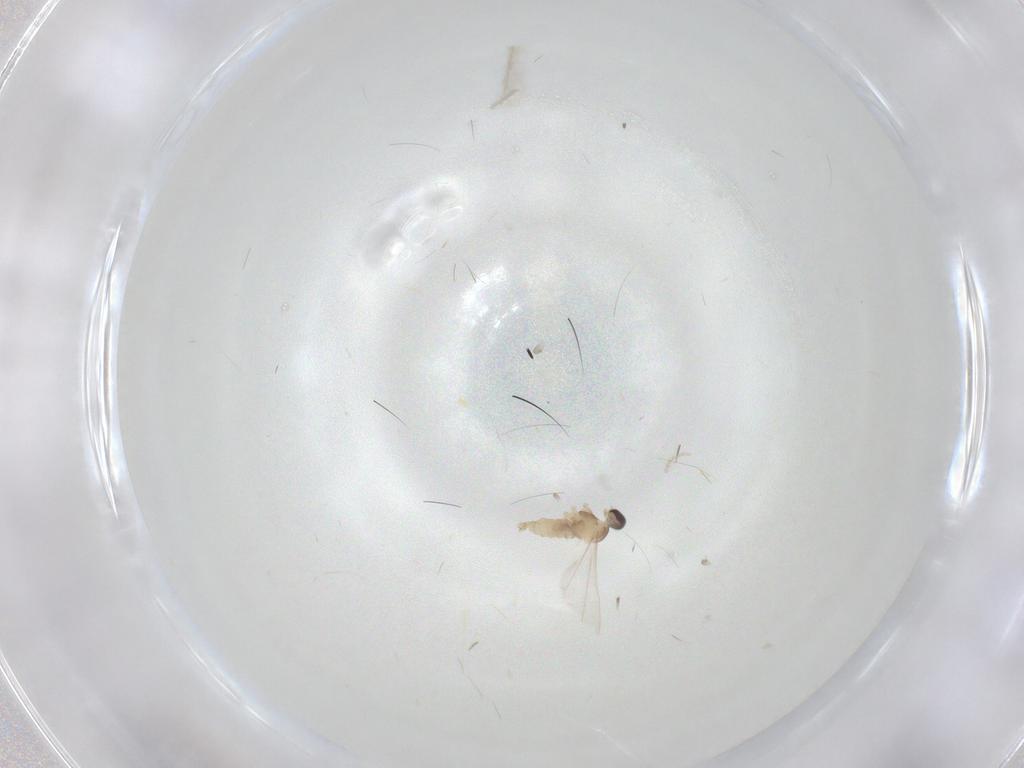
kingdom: Animalia
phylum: Arthropoda
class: Insecta
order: Diptera
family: Cecidomyiidae
